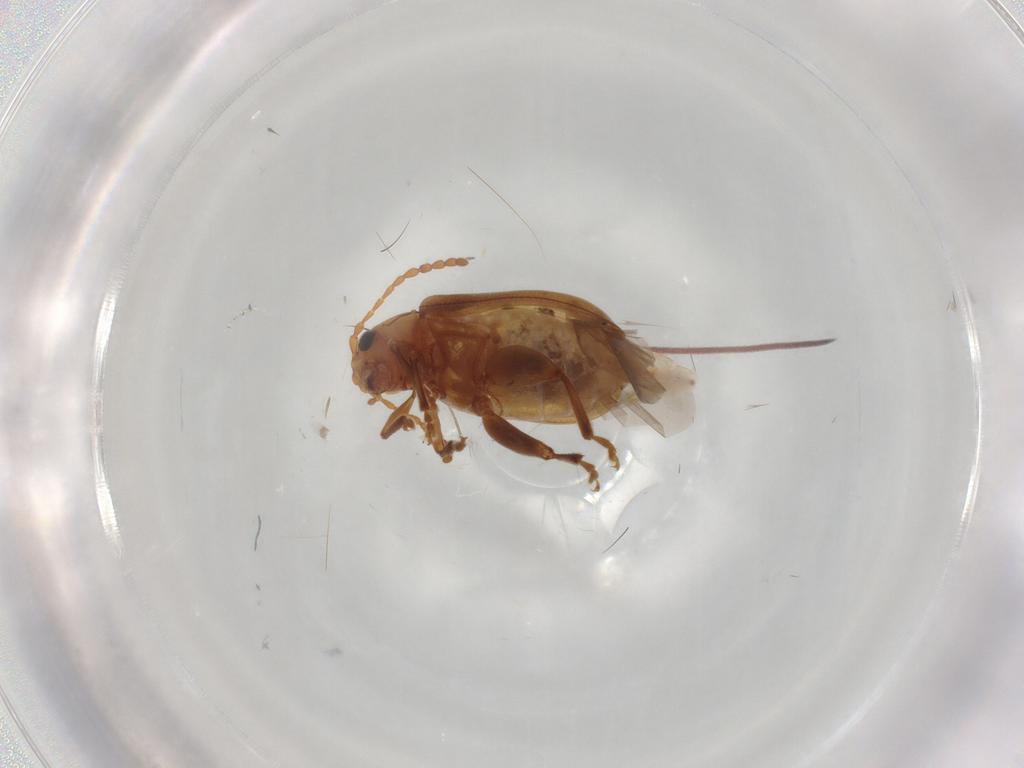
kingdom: Animalia
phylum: Arthropoda
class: Insecta
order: Coleoptera
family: Chrysomelidae
